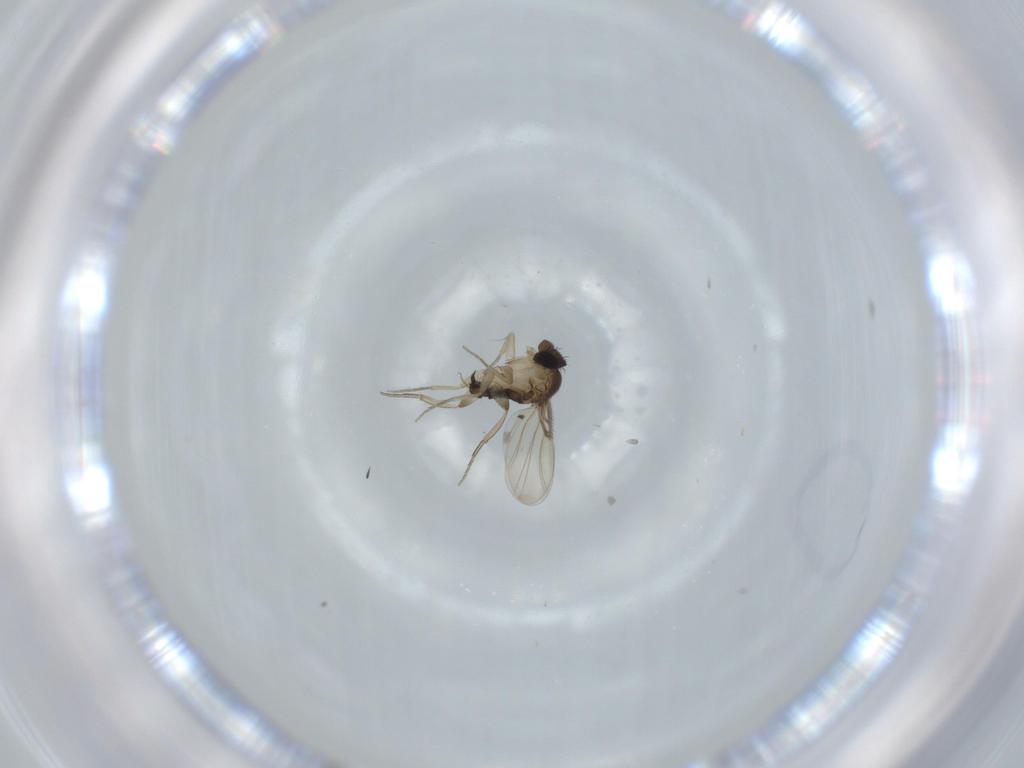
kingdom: Animalia
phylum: Arthropoda
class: Insecta
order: Diptera
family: Phoridae
